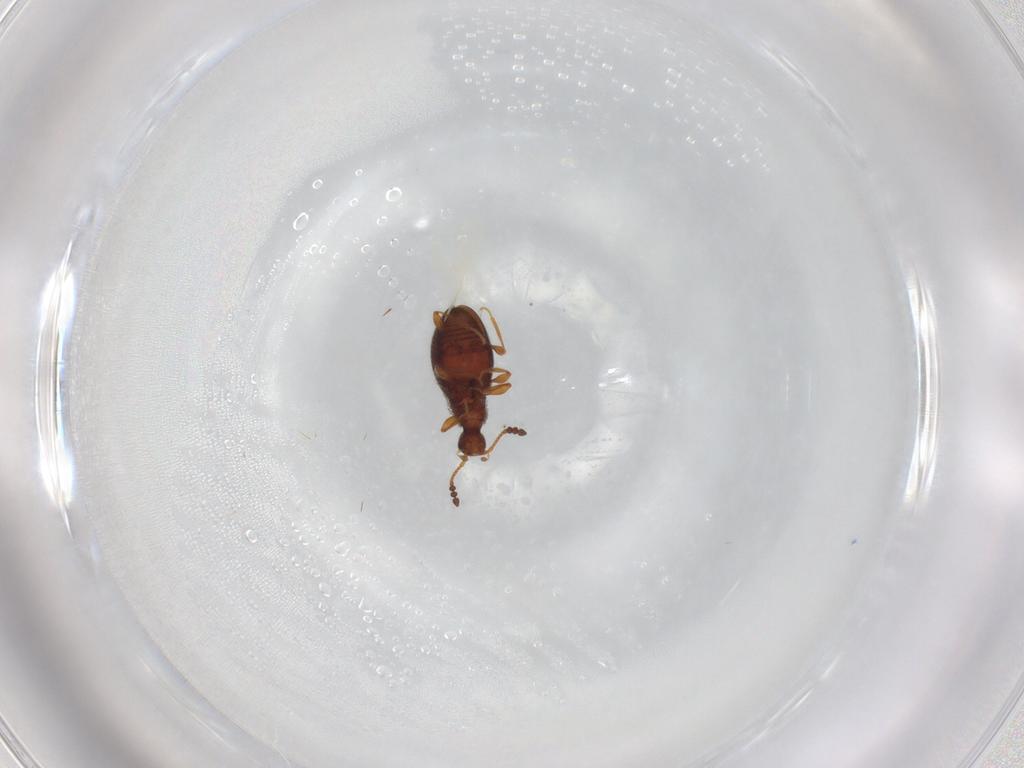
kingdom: Animalia
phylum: Arthropoda
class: Insecta
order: Coleoptera
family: Staphylinidae
